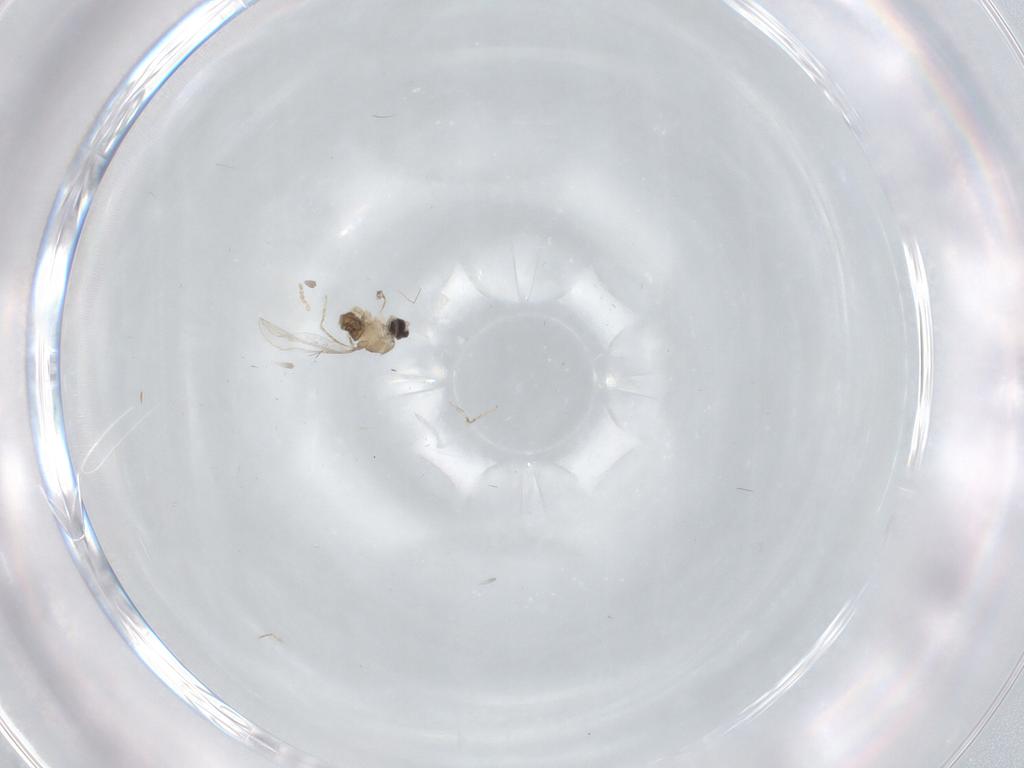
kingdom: Animalia
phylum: Arthropoda
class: Insecta
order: Diptera
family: Cecidomyiidae
